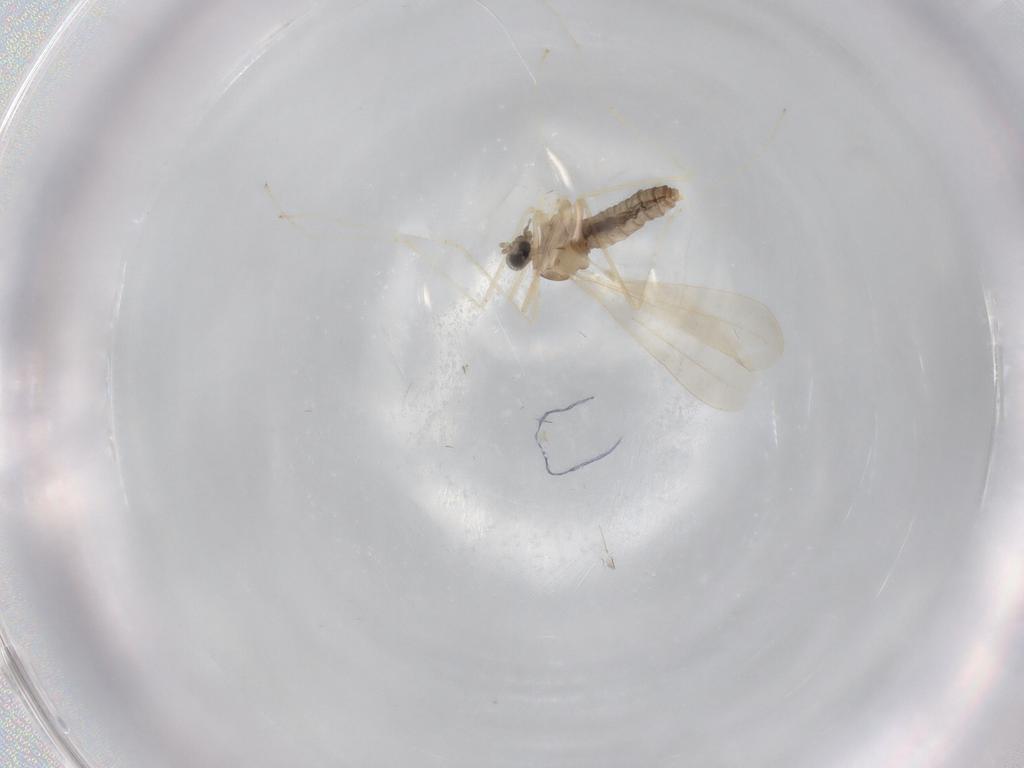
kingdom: Animalia
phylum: Arthropoda
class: Insecta
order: Diptera
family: Cecidomyiidae
